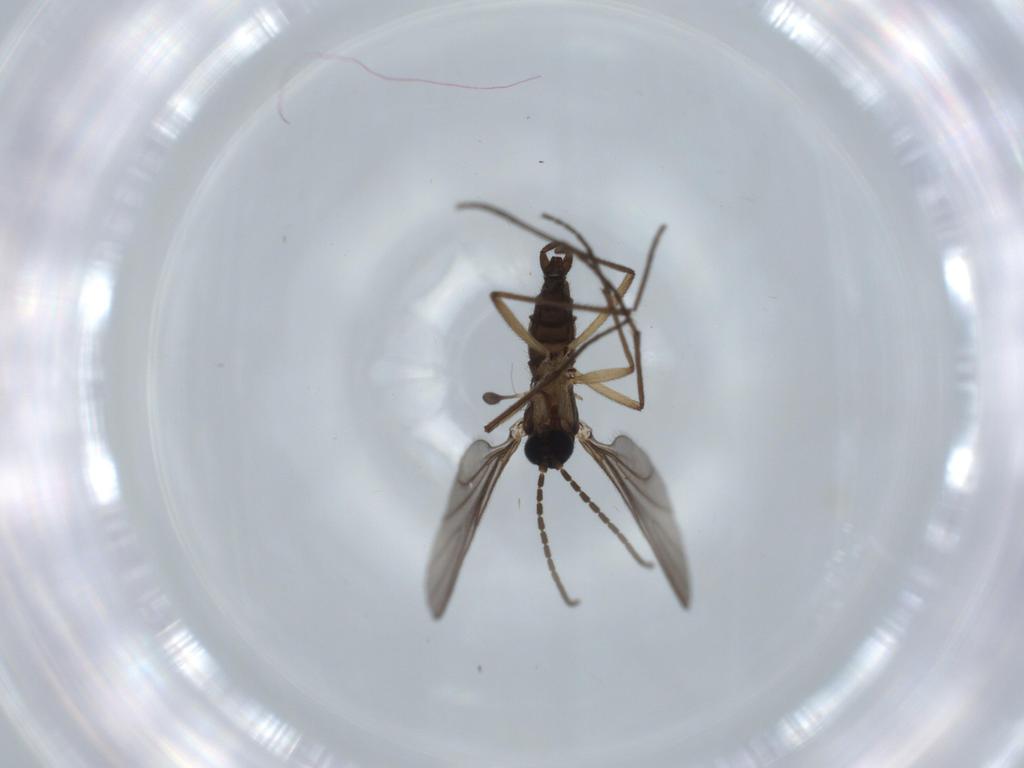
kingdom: Animalia
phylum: Arthropoda
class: Insecta
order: Diptera
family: Sciaridae
